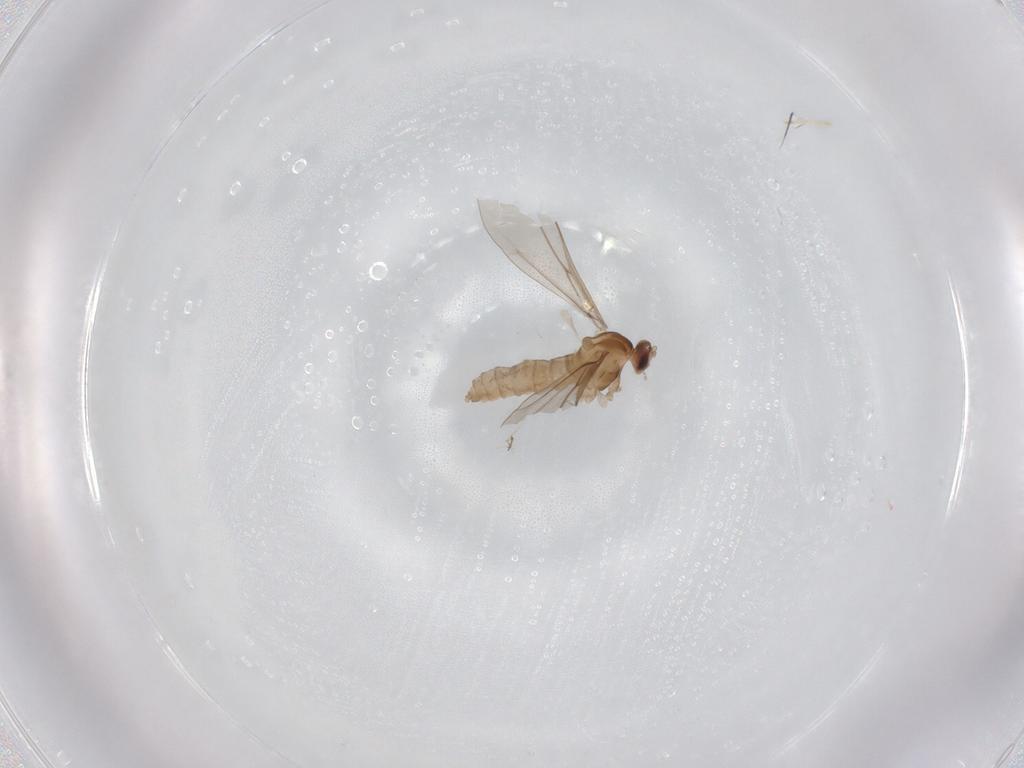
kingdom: Animalia
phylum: Arthropoda
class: Insecta
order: Diptera
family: Cecidomyiidae
